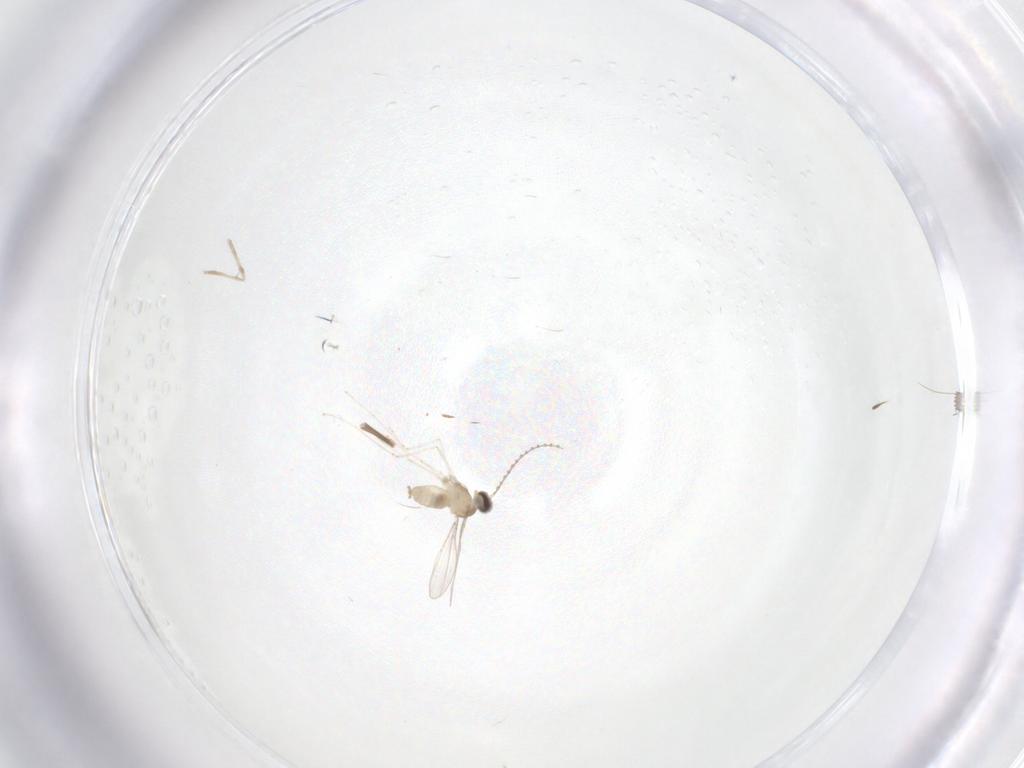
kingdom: Animalia
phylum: Arthropoda
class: Insecta
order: Diptera
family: Cecidomyiidae
